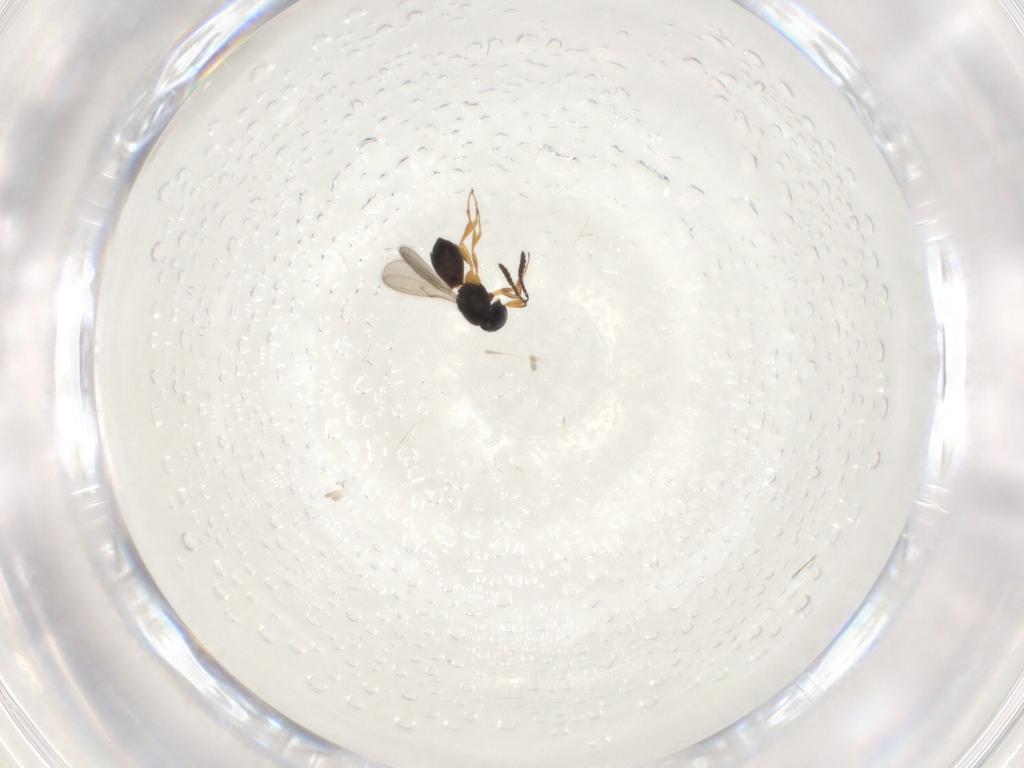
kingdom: Animalia
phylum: Arthropoda
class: Insecta
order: Hymenoptera
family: Scelionidae
